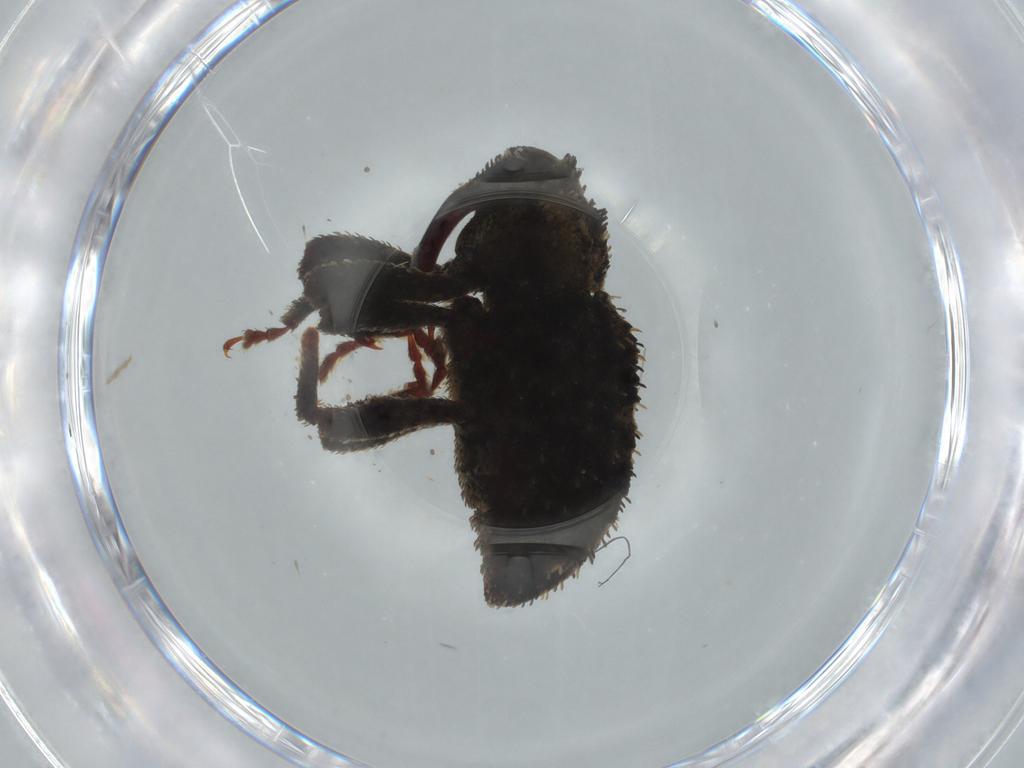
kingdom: Animalia
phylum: Arthropoda
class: Insecta
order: Coleoptera
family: Curculionidae
